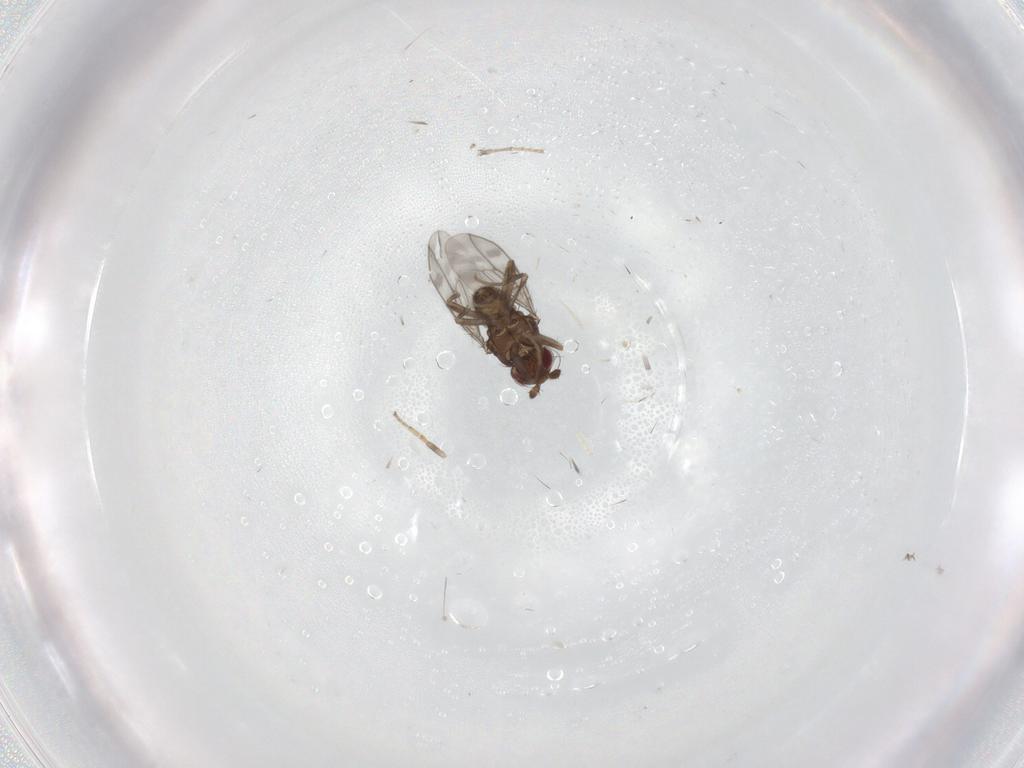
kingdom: Animalia
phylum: Arthropoda
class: Insecta
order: Diptera
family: Sphaeroceridae
